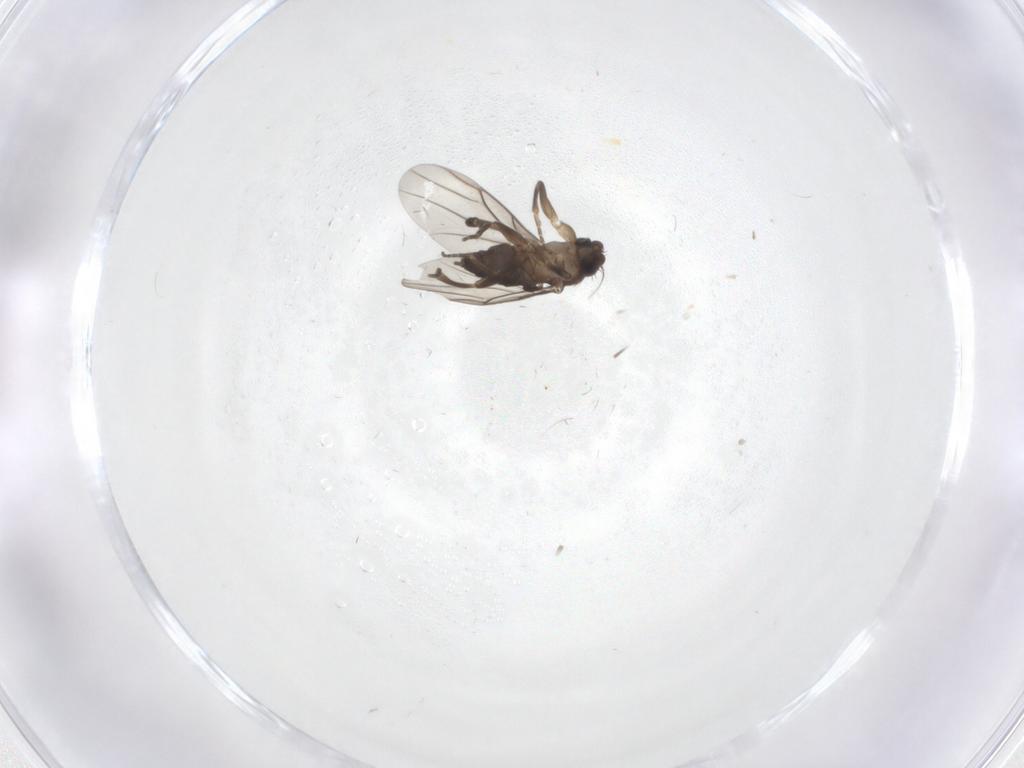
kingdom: Animalia
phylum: Arthropoda
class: Insecta
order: Diptera
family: Phoridae
